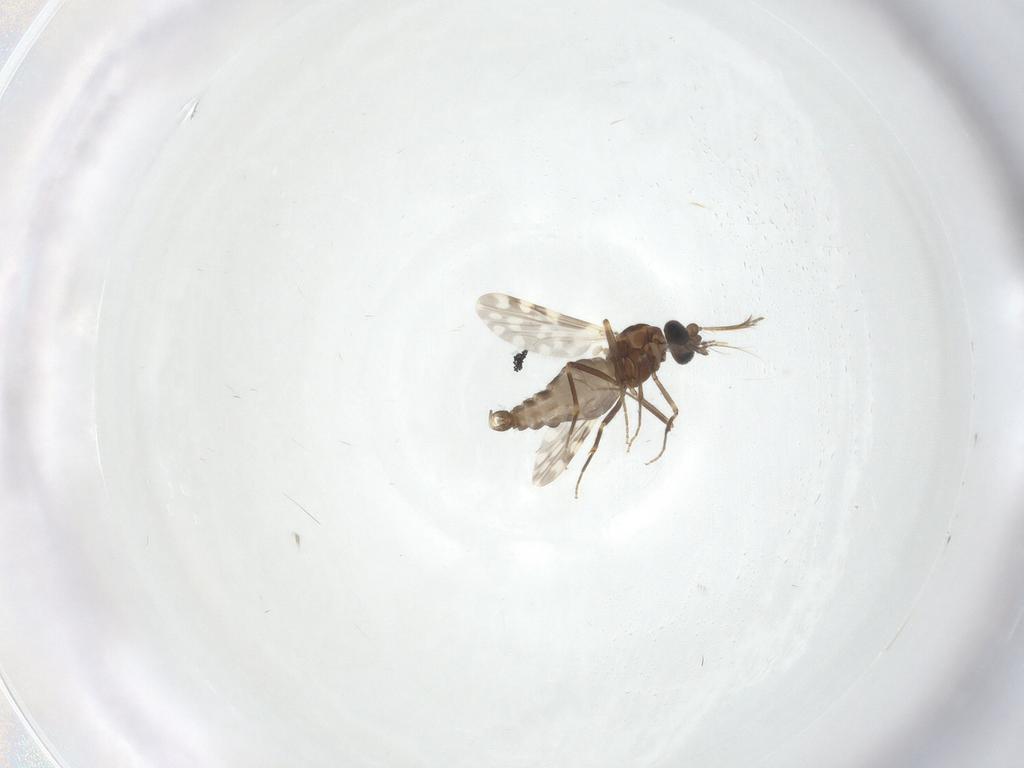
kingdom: Animalia
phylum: Arthropoda
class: Insecta
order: Diptera
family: Ceratopogonidae
